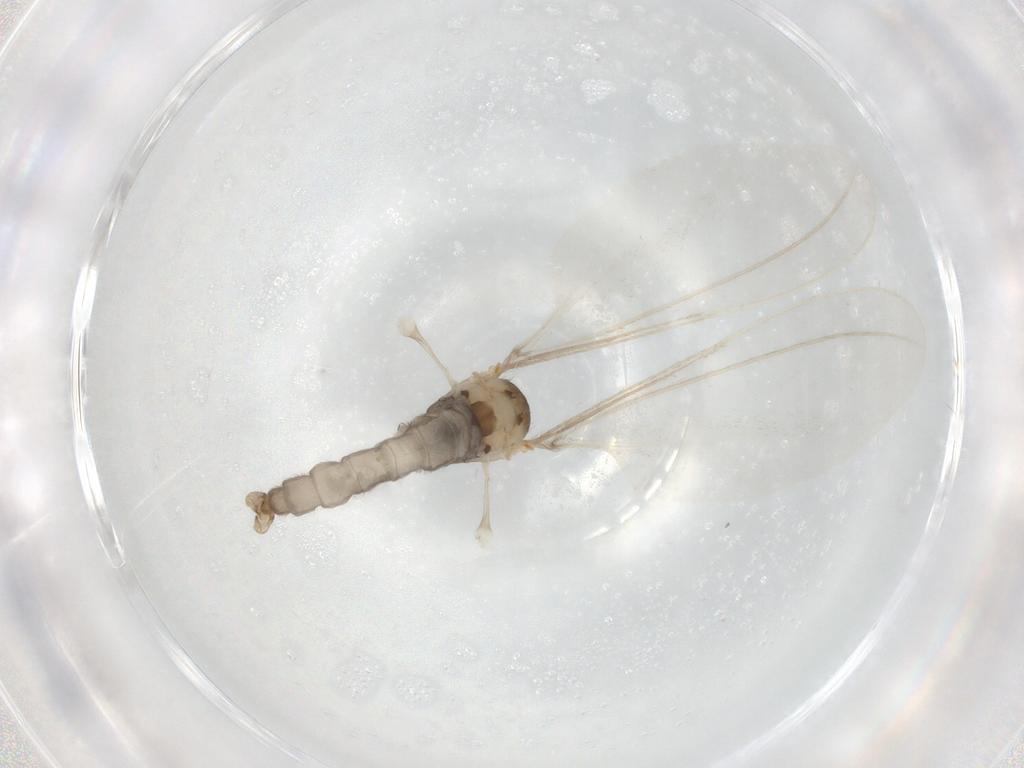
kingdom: Animalia
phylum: Arthropoda
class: Insecta
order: Diptera
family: Cecidomyiidae
